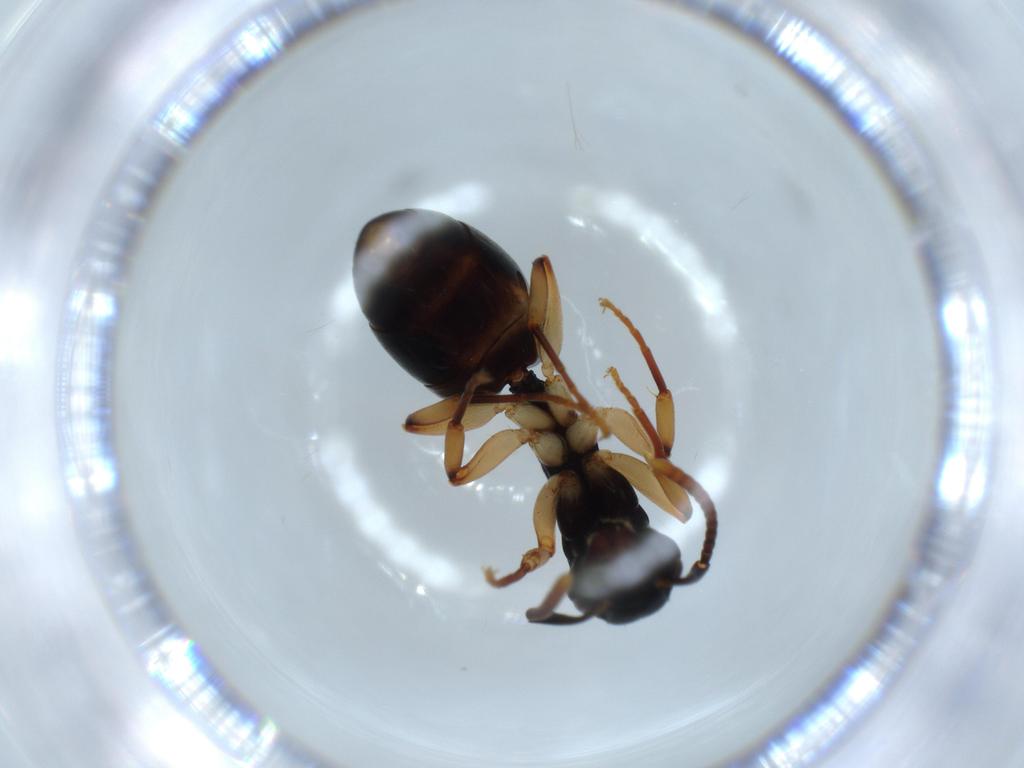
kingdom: Animalia
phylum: Arthropoda
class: Insecta
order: Hymenoptera
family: Formicidae
